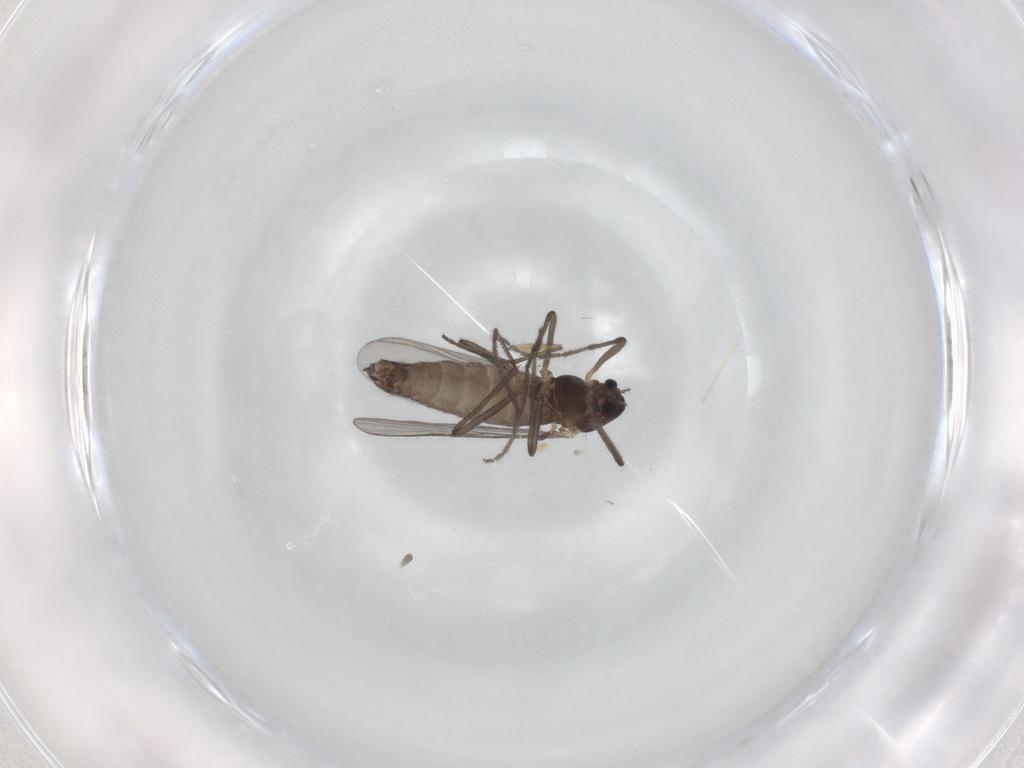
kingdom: Animalia
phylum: Arthropoda
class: Insecta
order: Diptera
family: Chironomidae
